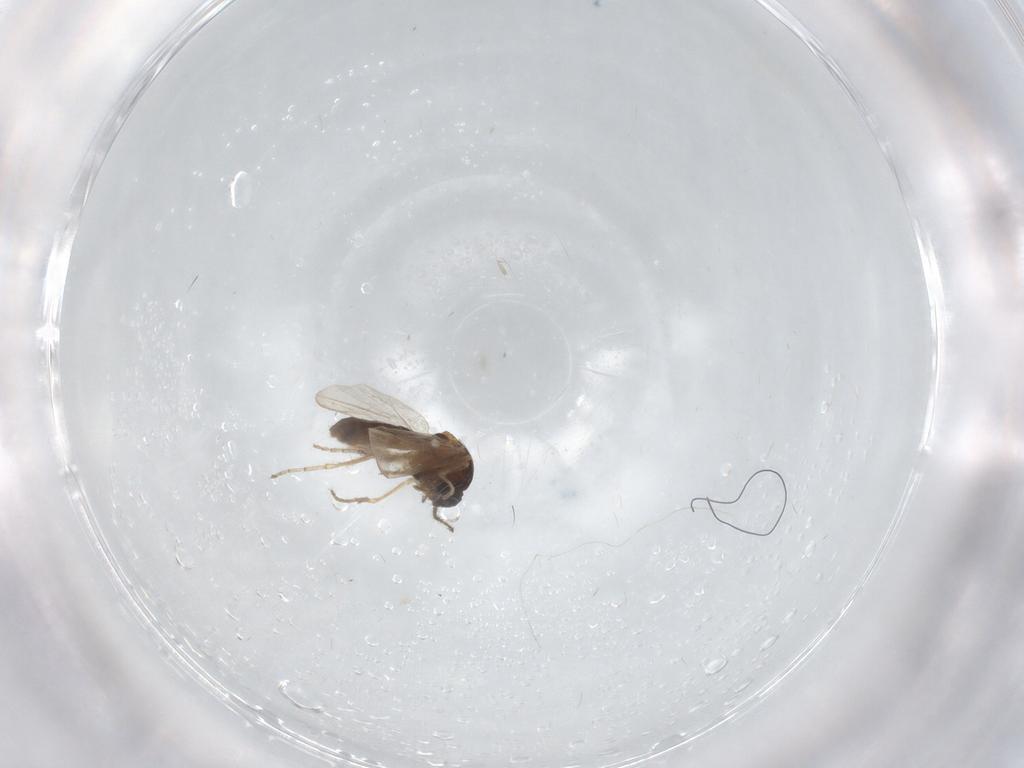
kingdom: Animalia
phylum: Arthropoda
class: Insecta
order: Diptera
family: Ceratopogonidae
